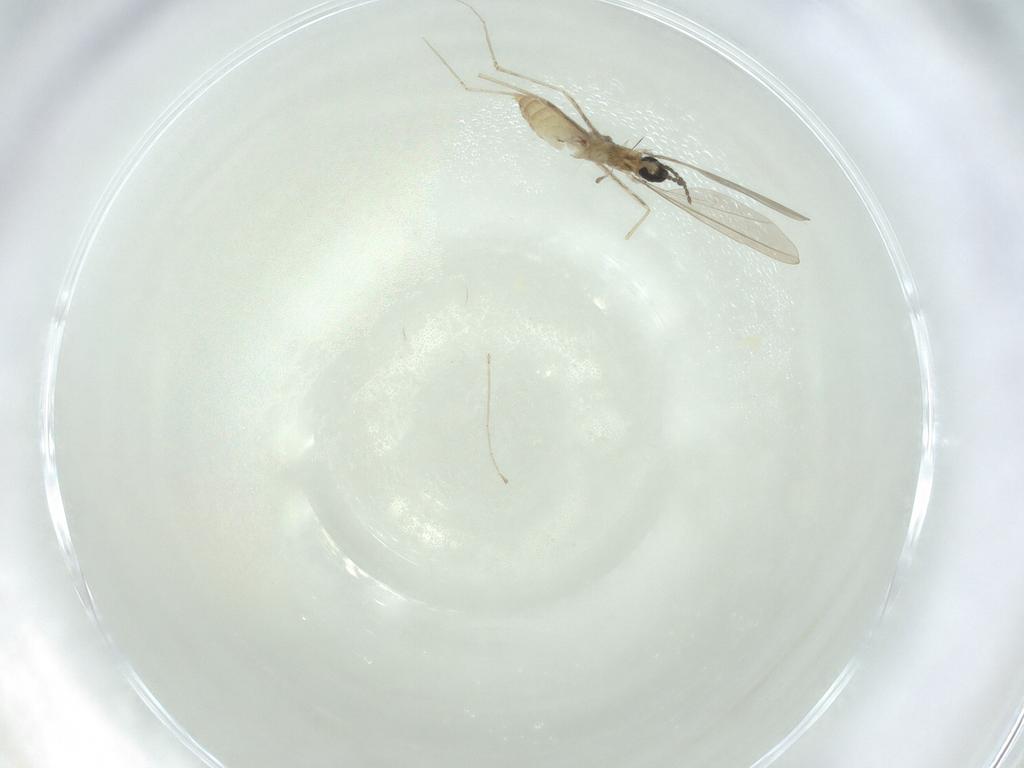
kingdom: Animalia
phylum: Arthropoda
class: Insecta
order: Diptera
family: Cecidomyiidae
